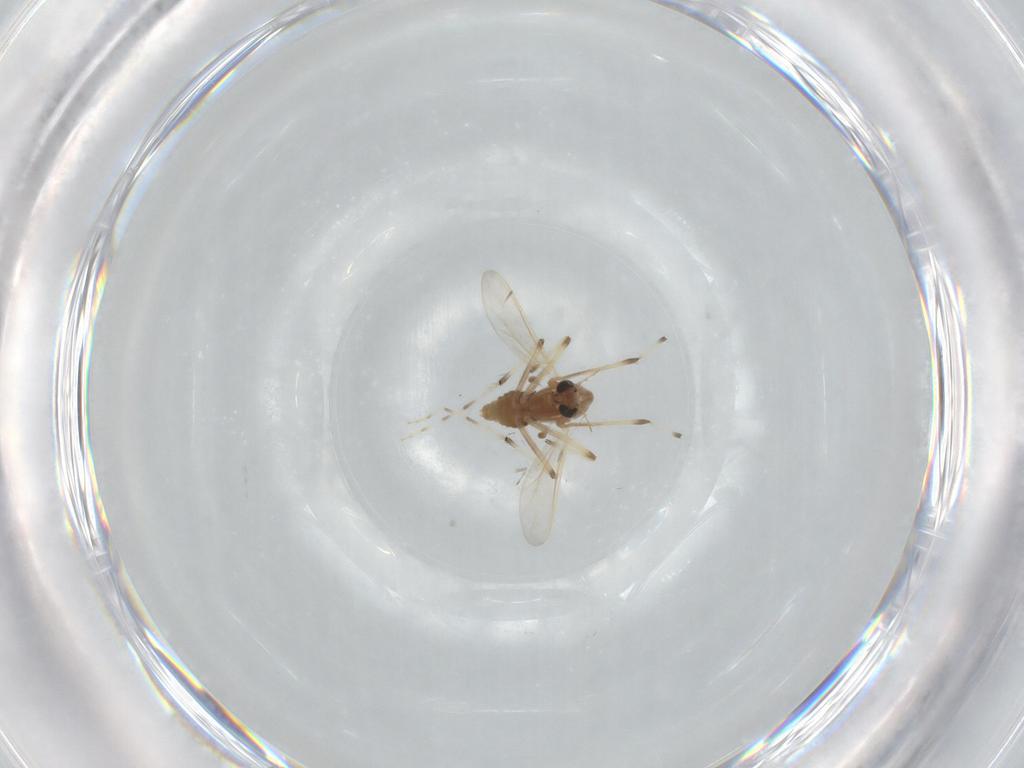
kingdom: Animalia
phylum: Arthropoda
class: Insecta
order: Diptera
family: Chironomidae
